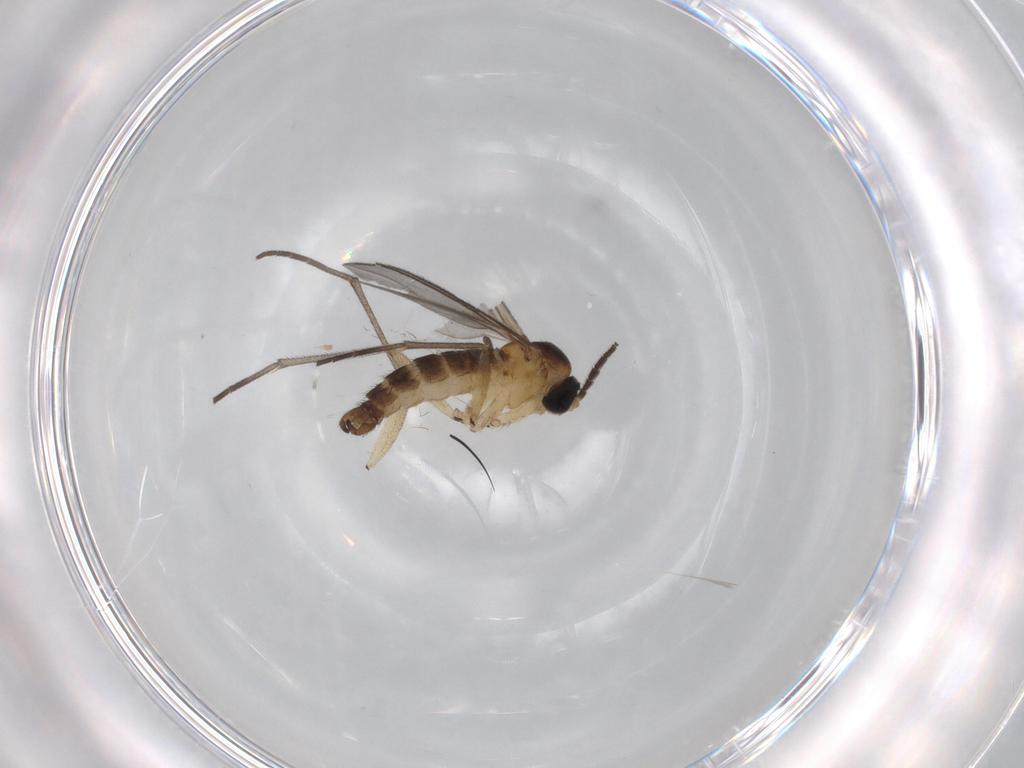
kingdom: Animalia
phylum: Arthropoda
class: Insecta
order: Diptera
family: Sciaridae
